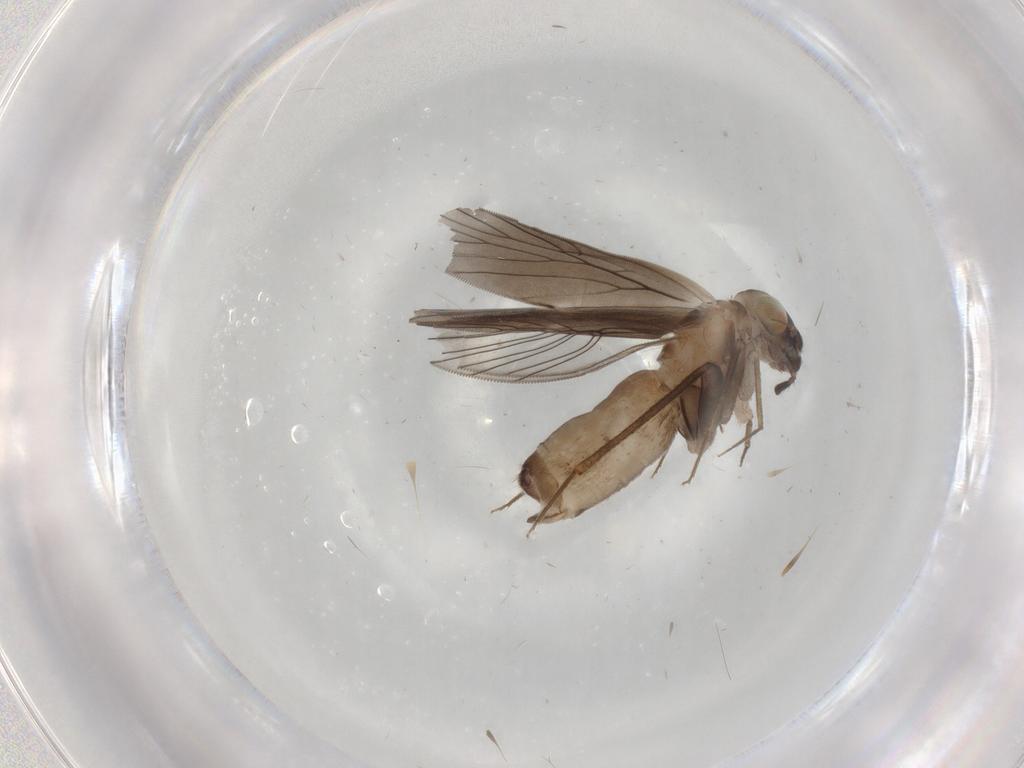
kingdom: Animalia
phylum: Arthropoda
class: Insecta
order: Psocodea
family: Lepidopsocidae
